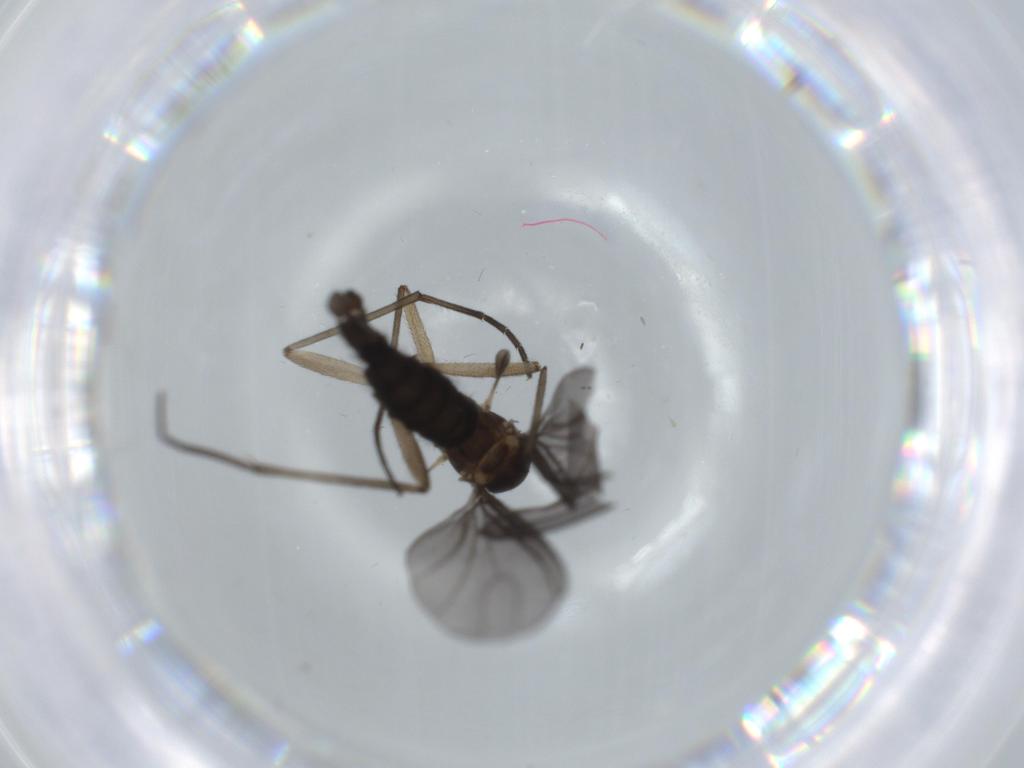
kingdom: Animalia
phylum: Arthropoda
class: Insecta
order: Diptera
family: Sciaridae
